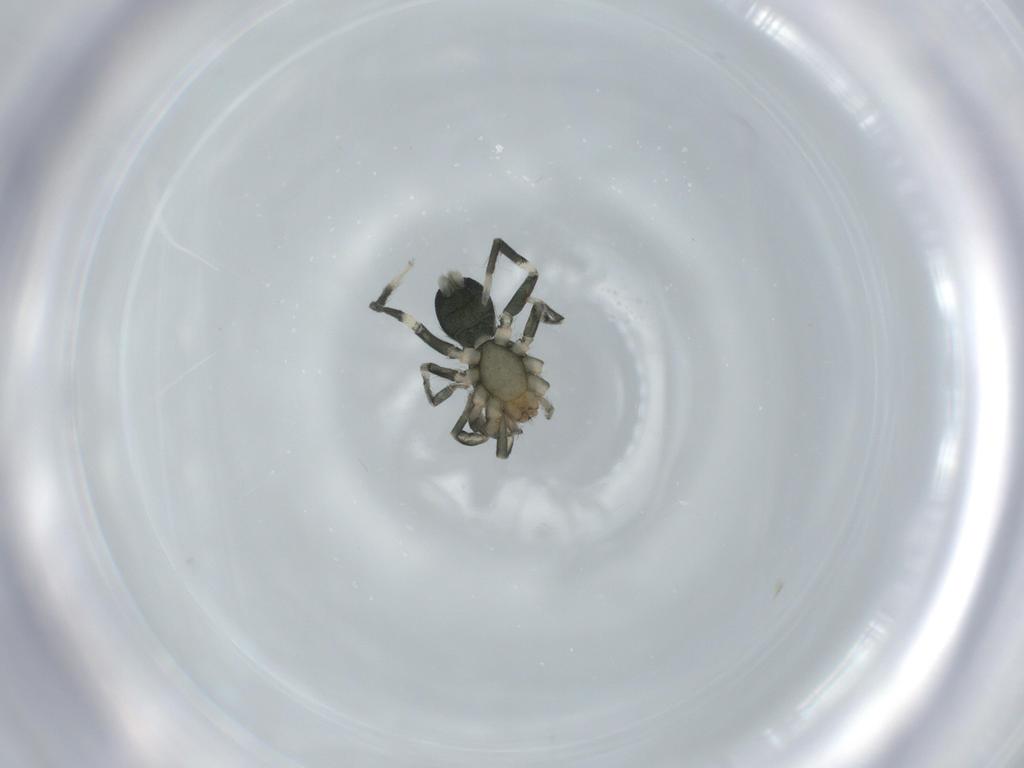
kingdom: Animalia
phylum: Arthropoda
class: Arachnida
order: Araneae
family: Gnaphosidae
